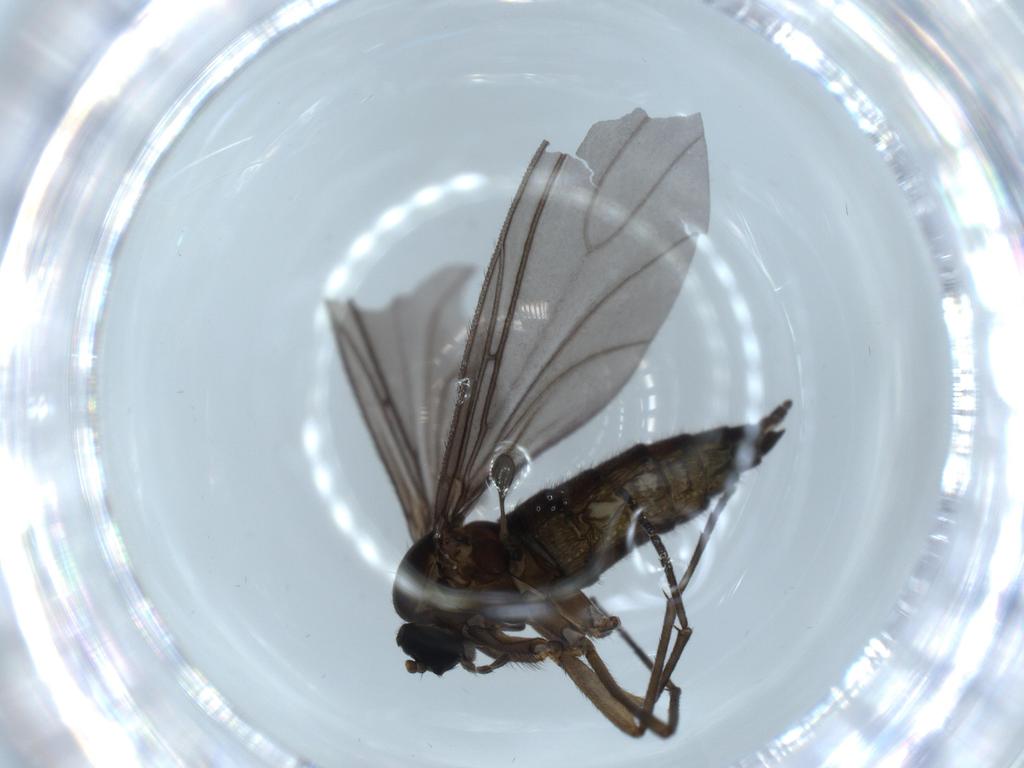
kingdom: Animalia
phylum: Arthropoda
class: Insecta
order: Diptera
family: Sciaridae
